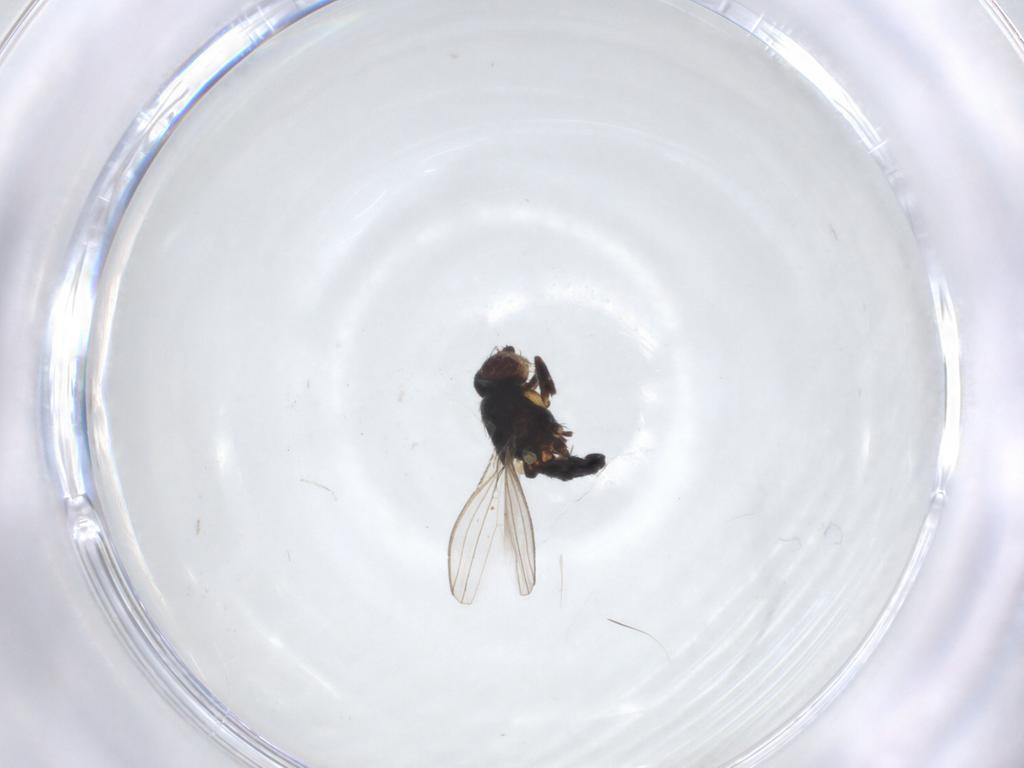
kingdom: Animalia
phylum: Arthropoda
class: Insecta
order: Diptera
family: Milichiidae
